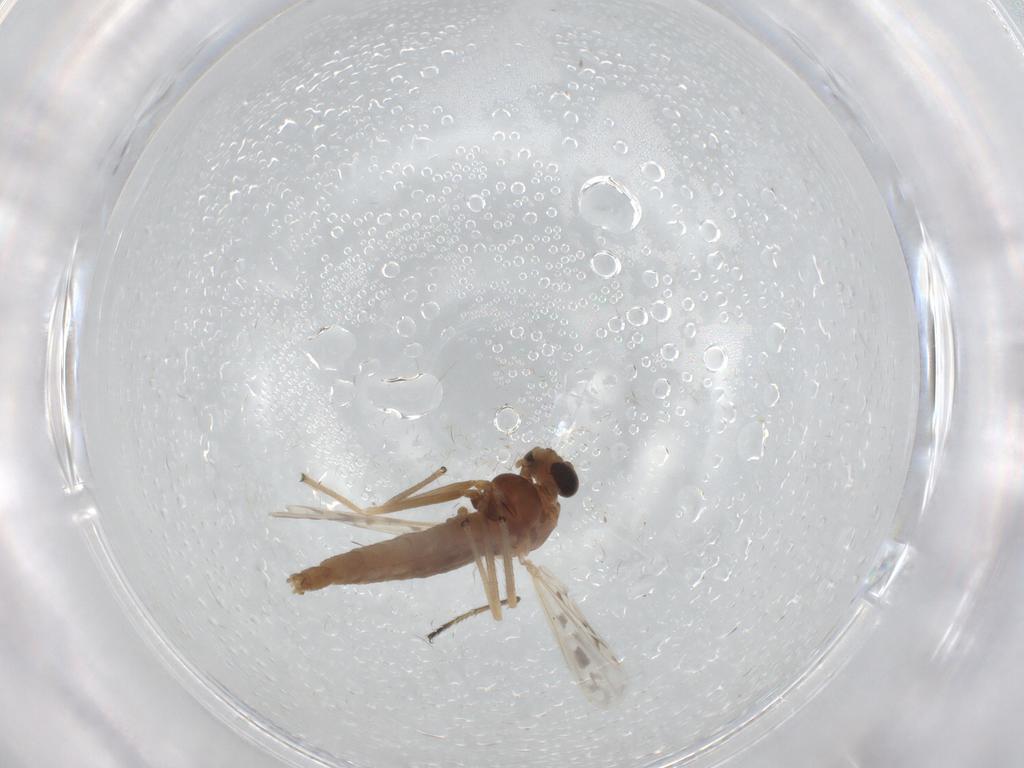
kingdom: Animalia
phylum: Arthropoda
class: Insecta
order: Diptera
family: Chironomidae
